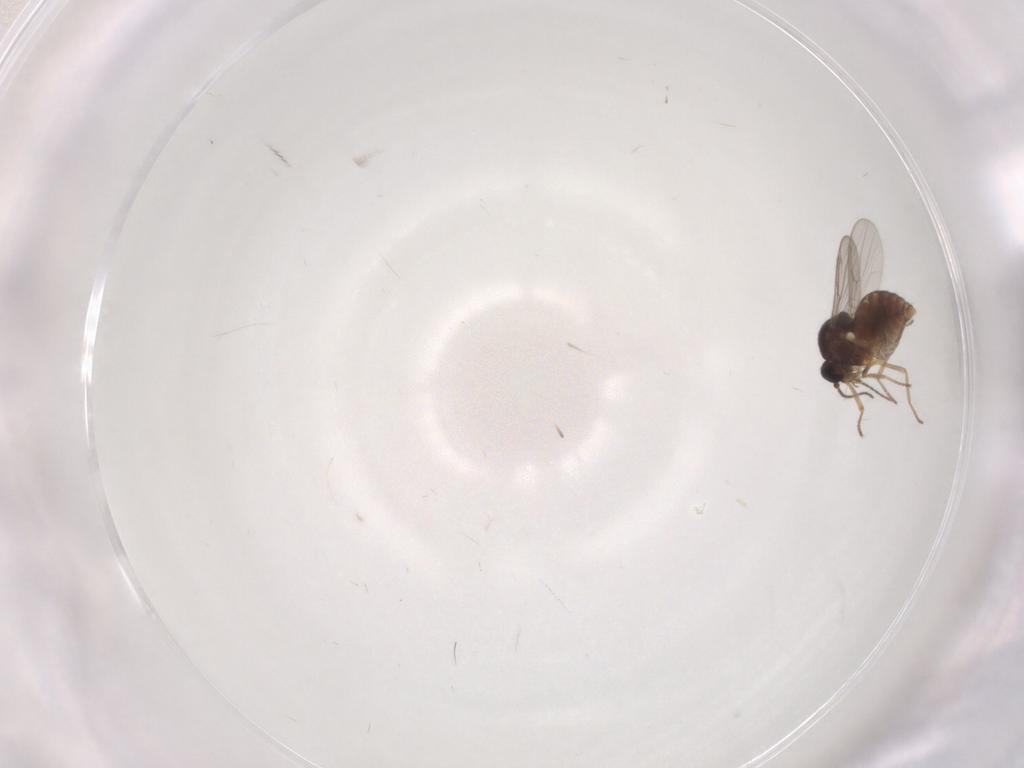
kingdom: Animalia
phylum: Arthropoda
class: Insecta
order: Diptera
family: Ceratopogonidae
